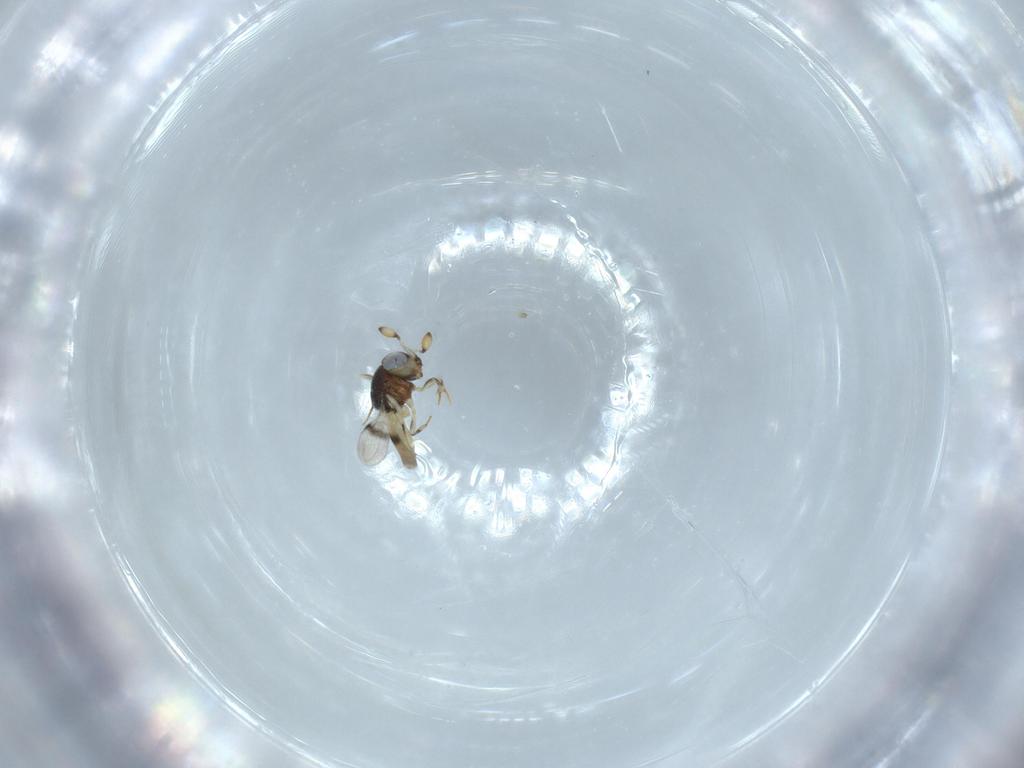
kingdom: Animalia
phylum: Arthropoda
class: Insecta
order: Hymenoptera
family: Scelionidae
